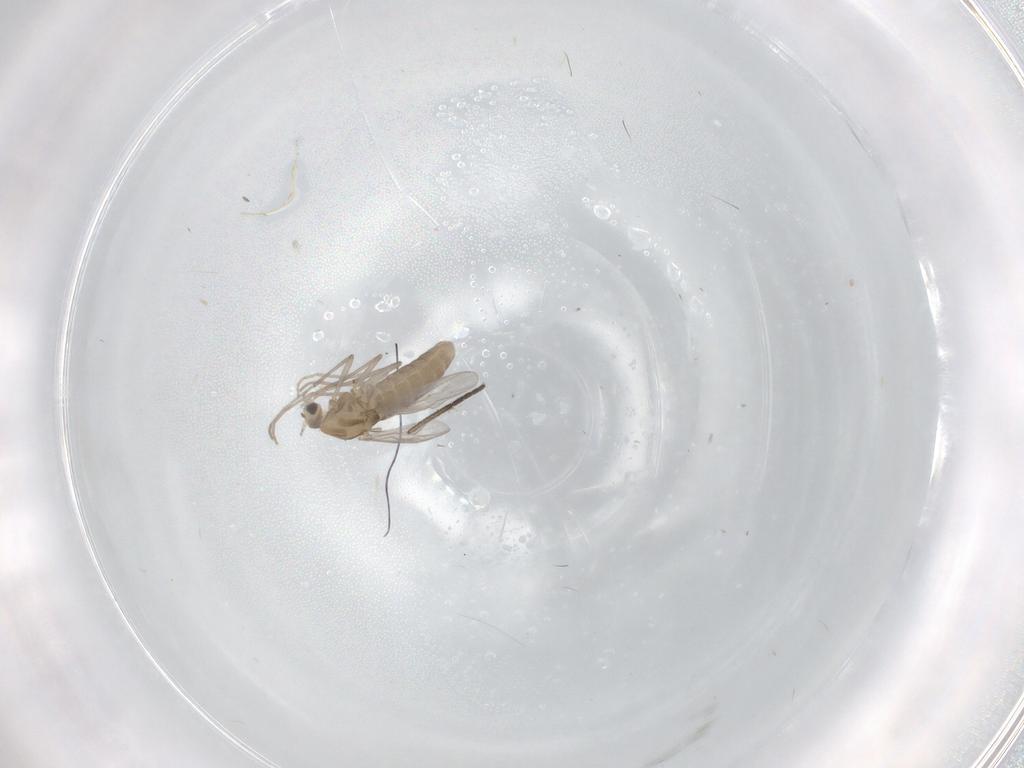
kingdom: Animalia
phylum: Arthropoda
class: Insecta
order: Diptera
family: Chironomidae
